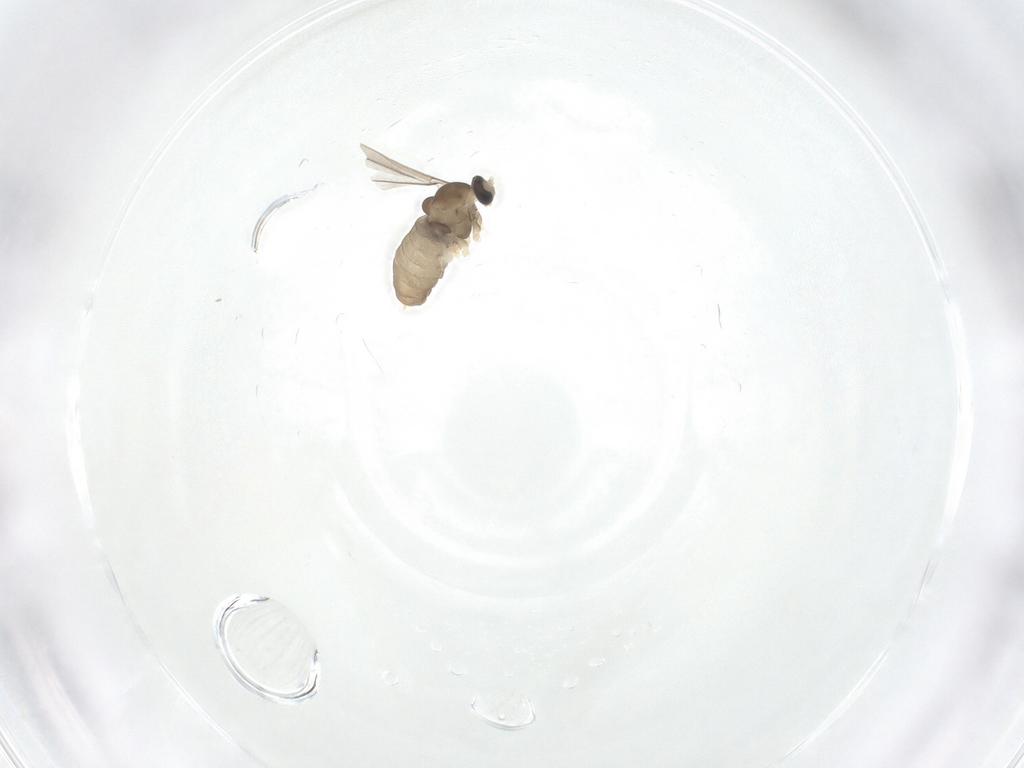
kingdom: Animalia
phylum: Arthropoda
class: Insecta
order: Diptera
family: Cecidomyiidae
